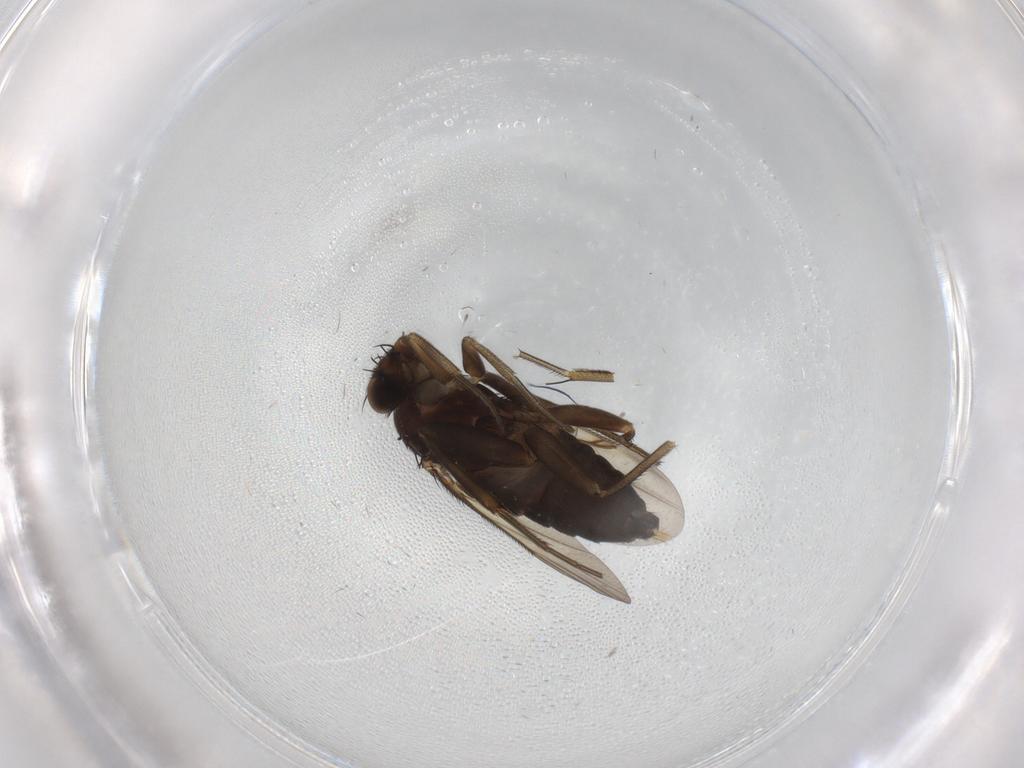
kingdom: Animalia
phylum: Arthropoda
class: Insecta
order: Diptera
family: Phoridae
